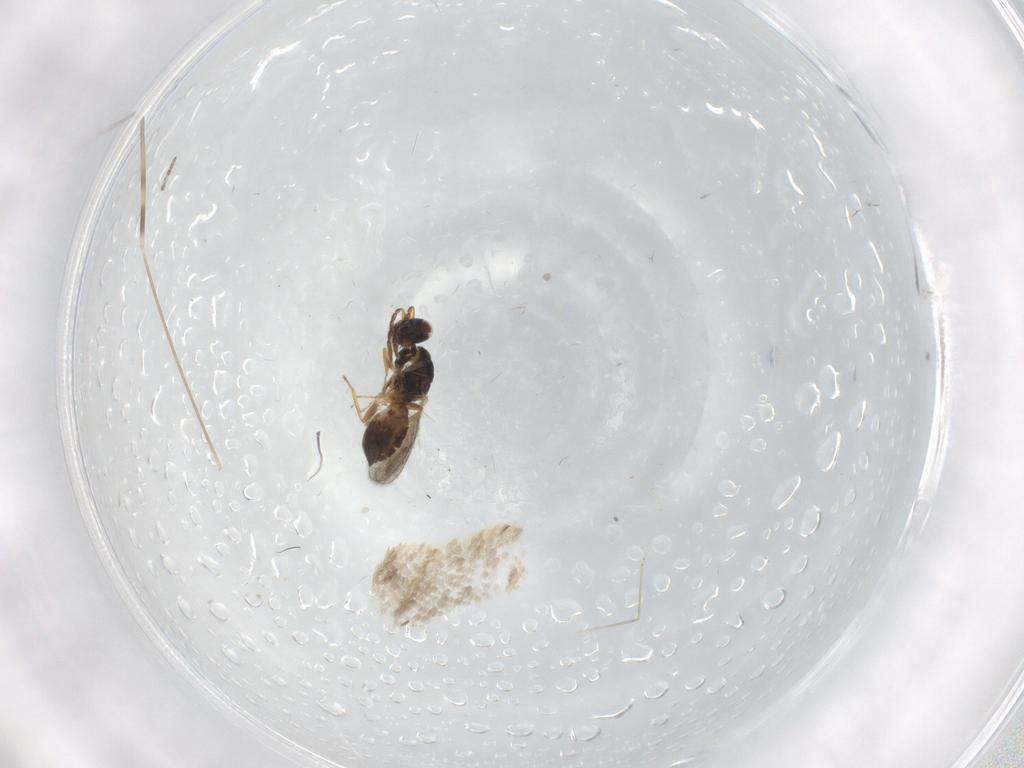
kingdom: Animalia
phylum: Arthropoda
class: Insecta
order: Hymenoptera
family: Eulophidae
